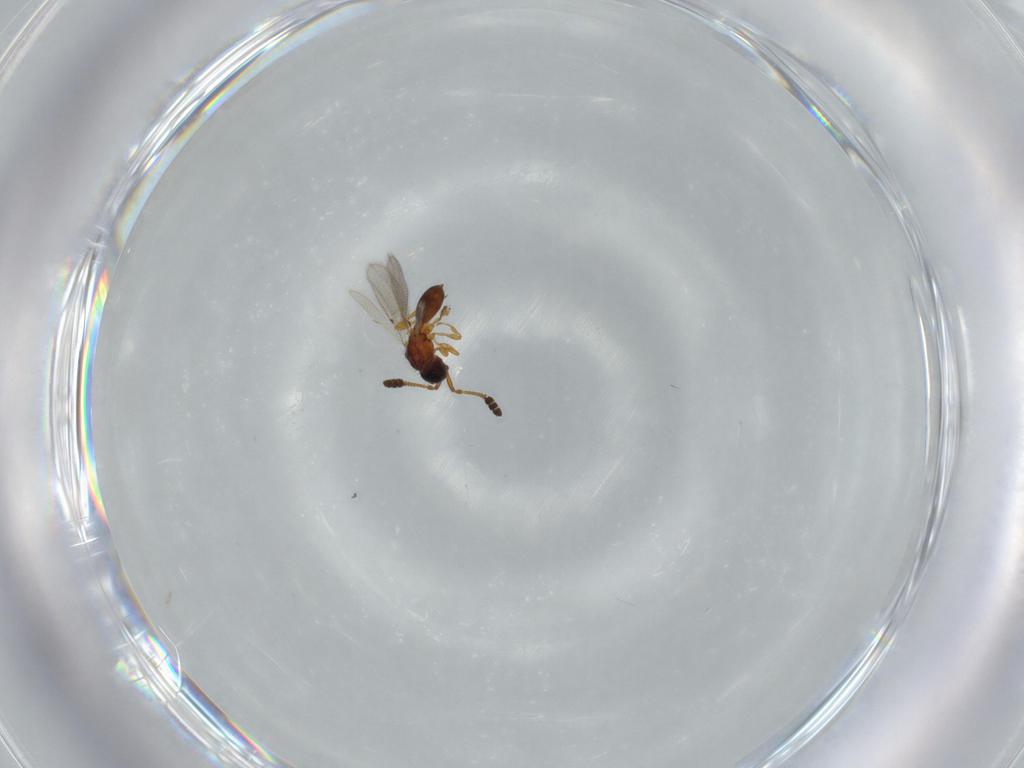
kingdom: Animalia
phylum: Arthropoda
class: Insecta
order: Hymenoptera
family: Diapriidae
